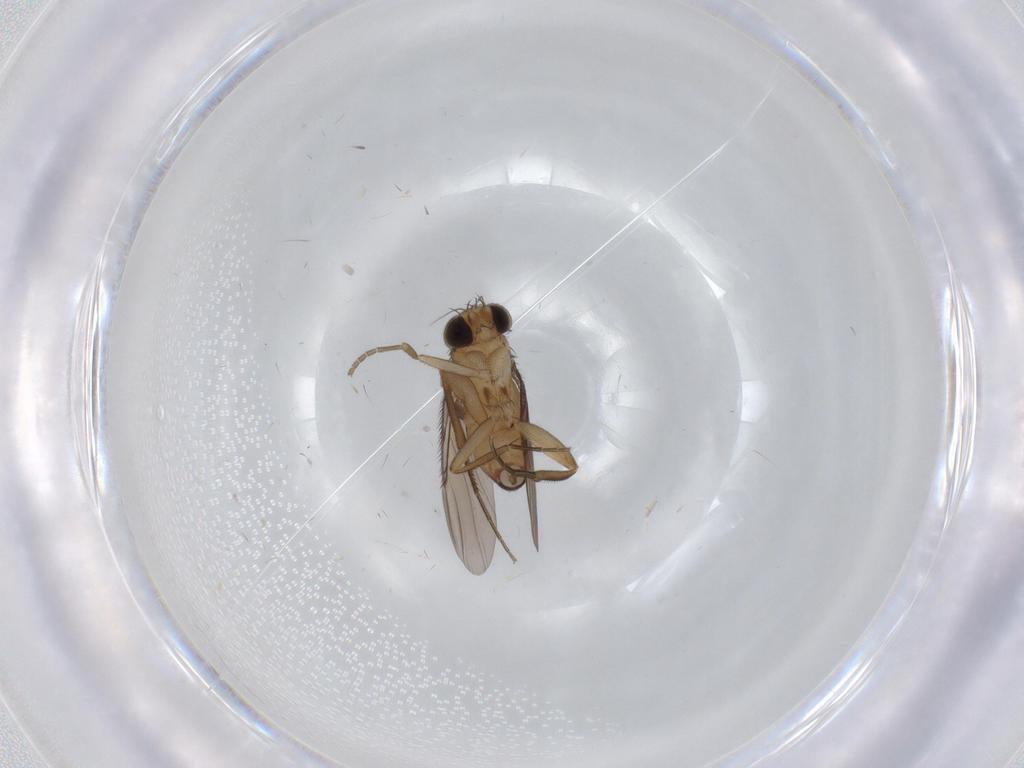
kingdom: Animalia
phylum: Arthropoda
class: Insecta
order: Diptera
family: Phoridae
